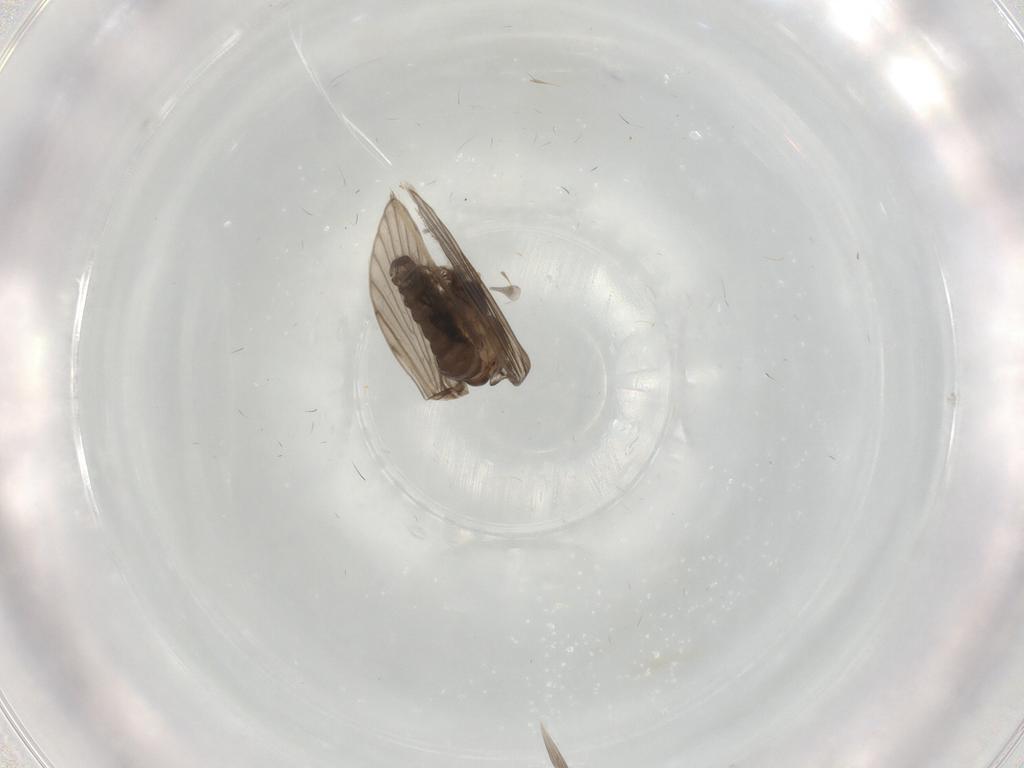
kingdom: Animalia
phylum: Arthropoda
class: Insecta
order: Diptera
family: Psychodidae
